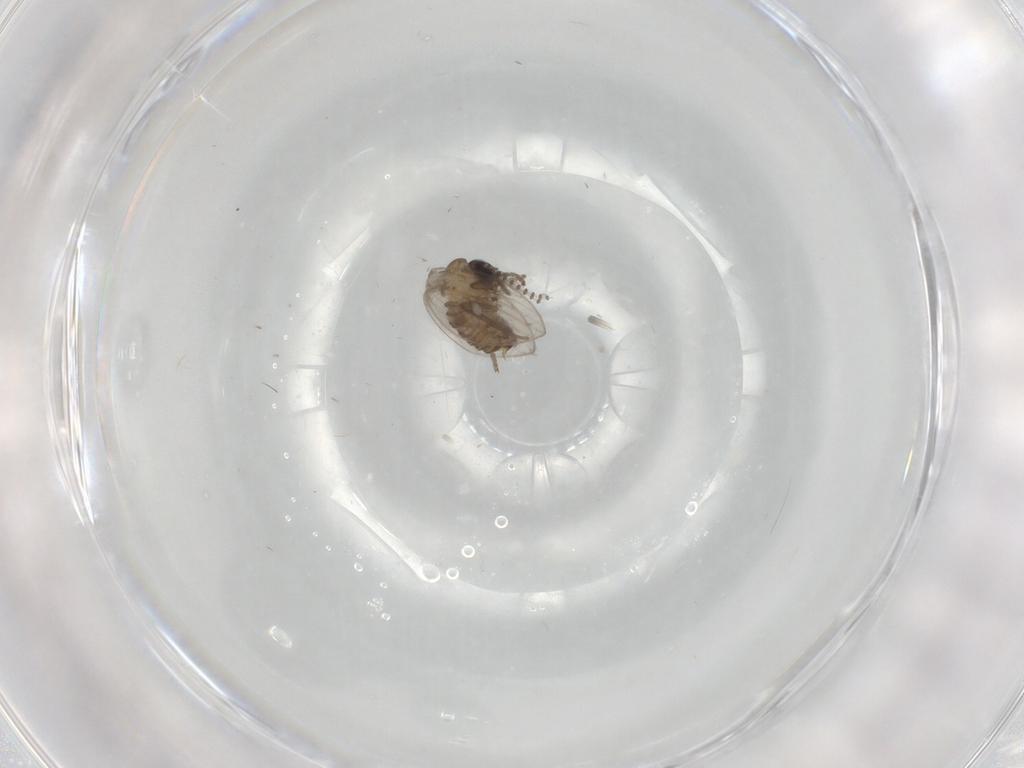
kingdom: Animalia
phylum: Arthropoda
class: Insecta
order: Diptera
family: Psychodidae
